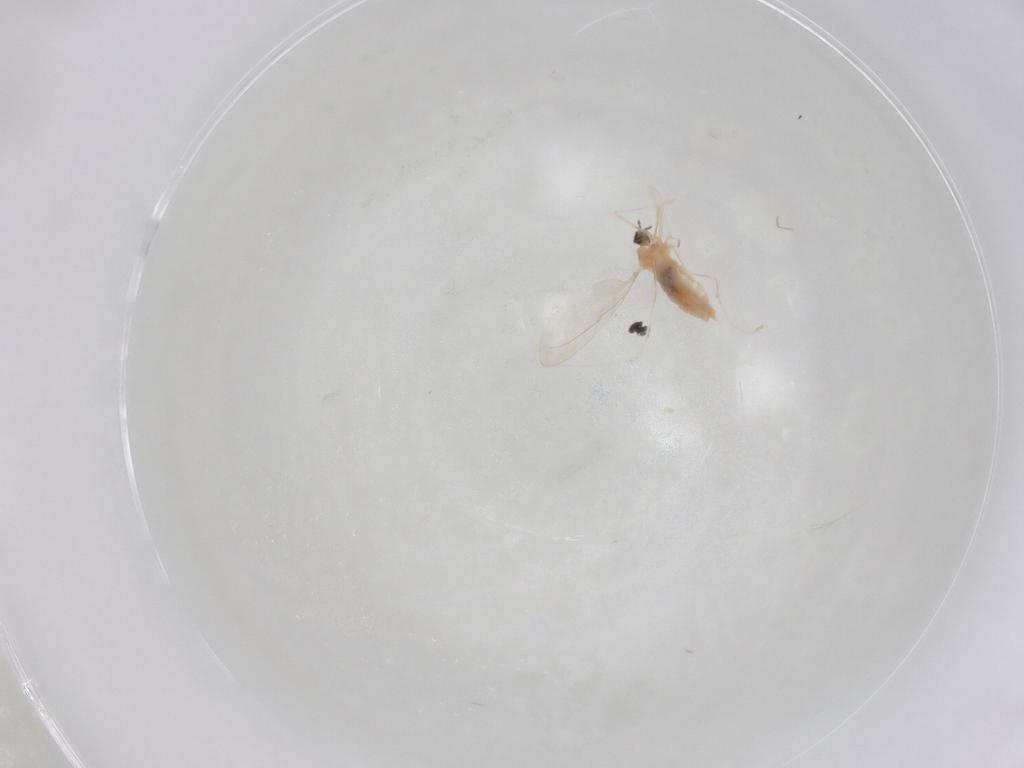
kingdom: Animalia
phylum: Arthropoda
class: Insecta
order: Diptera
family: Cecidomyiidae
